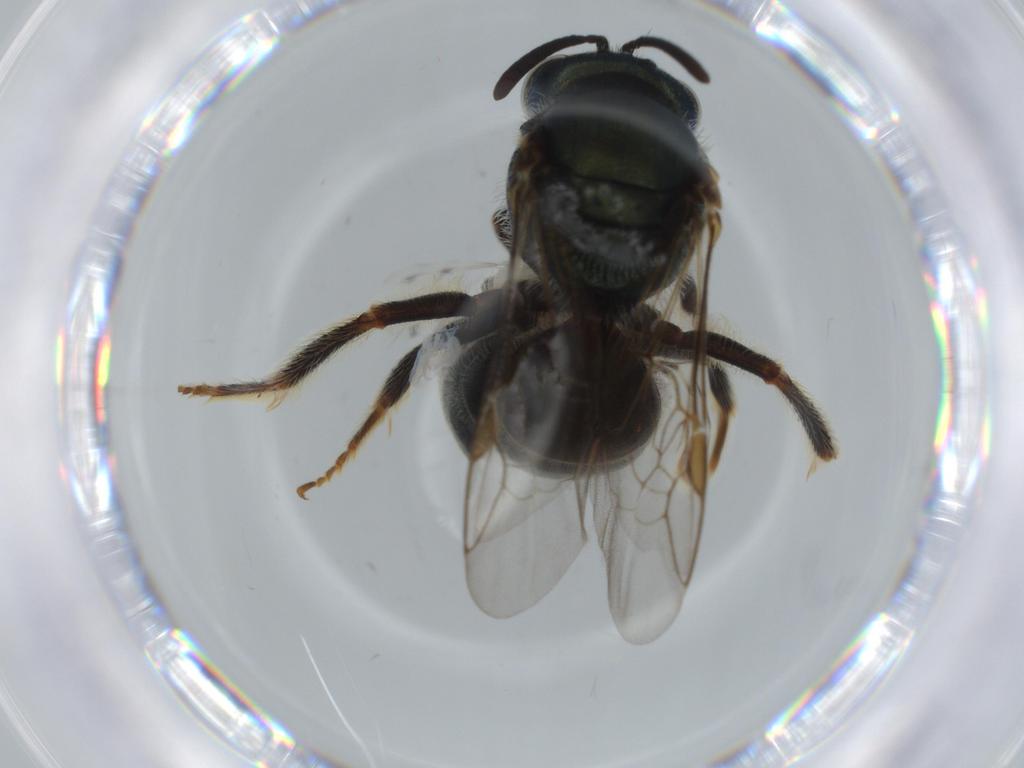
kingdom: Animalia
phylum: Arthropoda
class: Insecta
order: Hymenoptera
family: Halictidae
